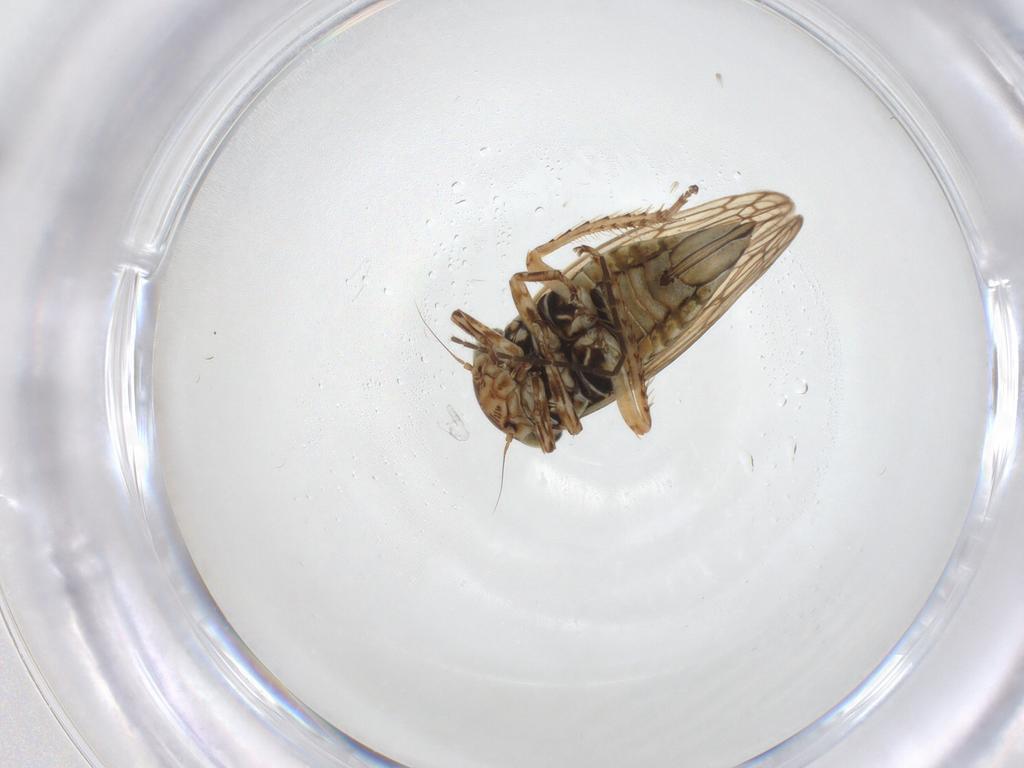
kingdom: Animalia
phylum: Arthropoda
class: Insecta
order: Hemiptera
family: Cicadellidae
